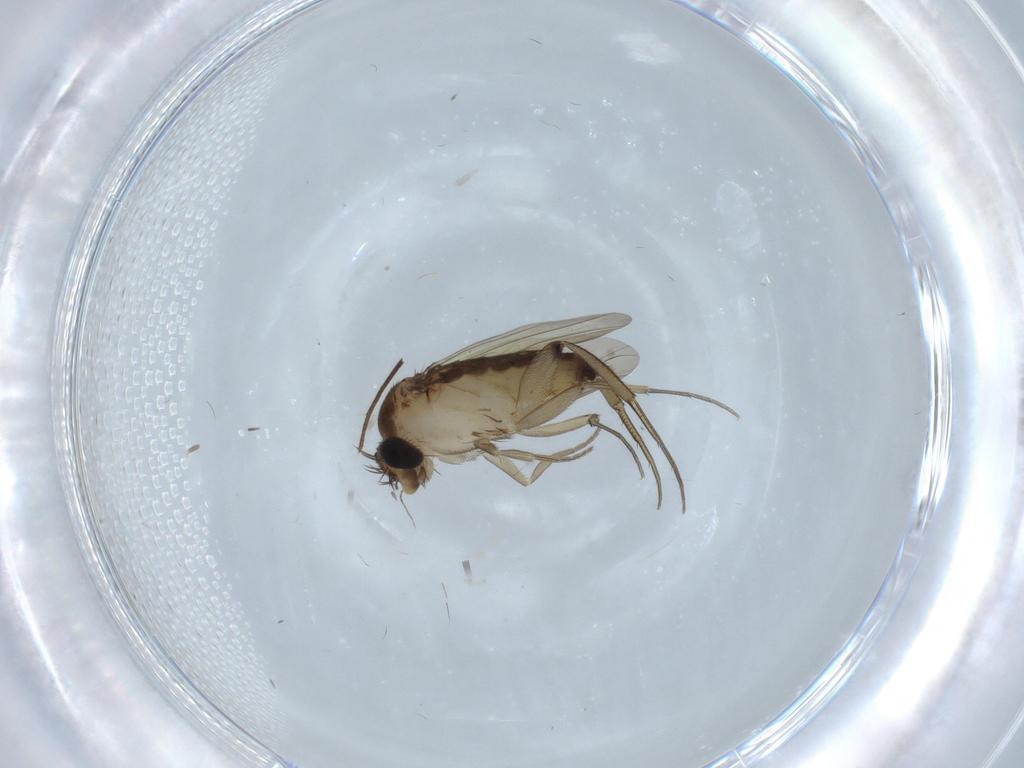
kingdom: Animalia
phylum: Arthropoda
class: Insecta
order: Diptera
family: Phoridae
